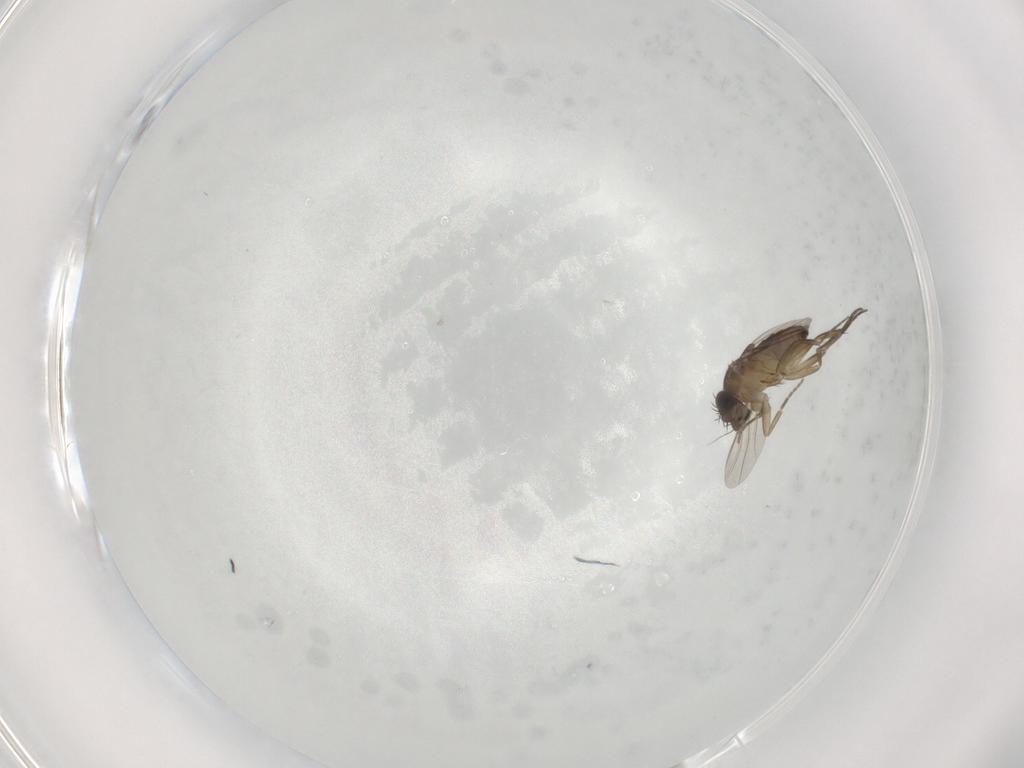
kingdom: Animalia
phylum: Arthropoda
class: Insecta
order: Diptera
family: Phoridae
